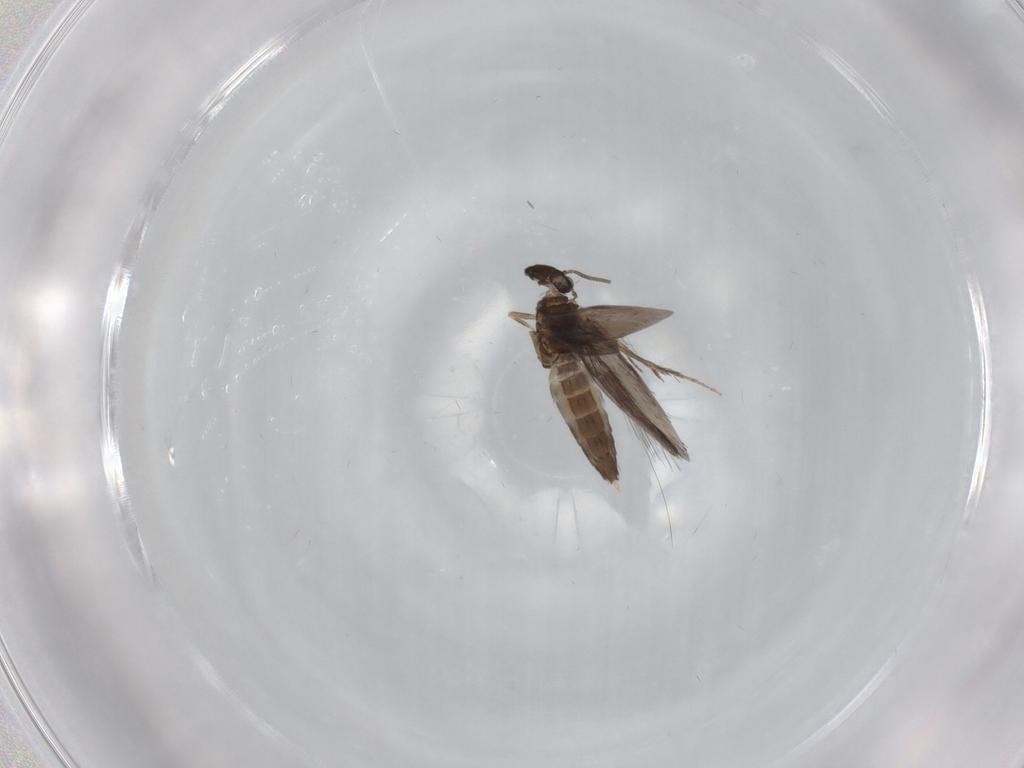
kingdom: Animalia
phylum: Arthropoda
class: Insecta
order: Trichoptera
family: Hydroptilidae
